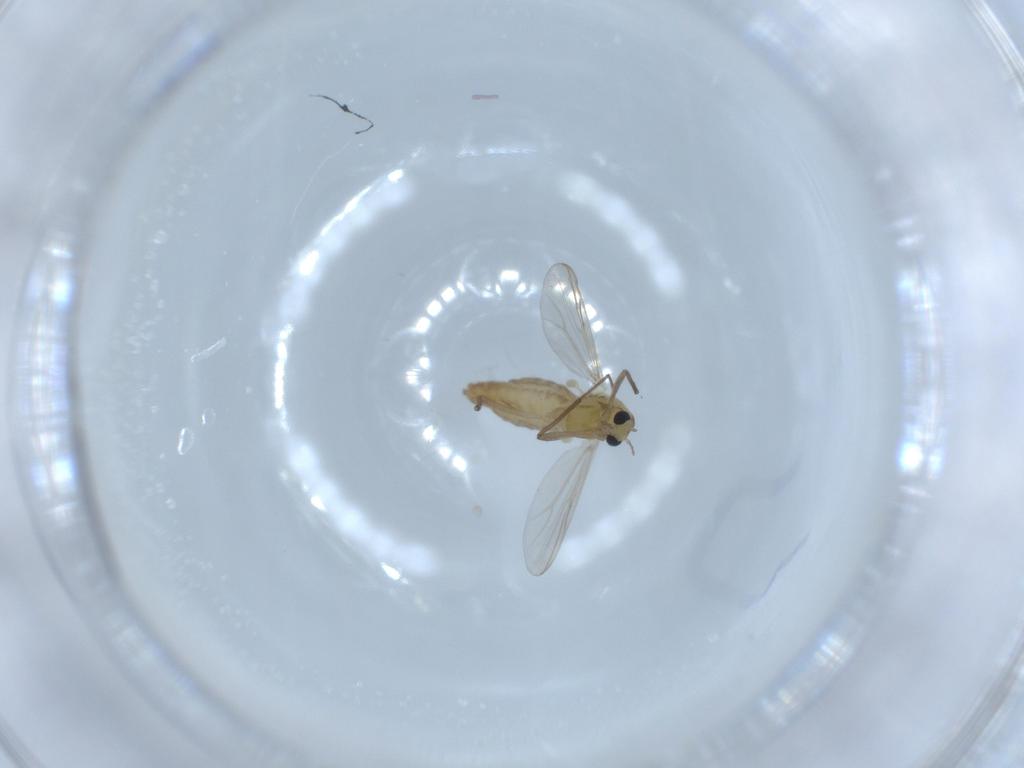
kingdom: Animalia
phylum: Arthropoda
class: Insecta
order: Diptera
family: Chironomidae
